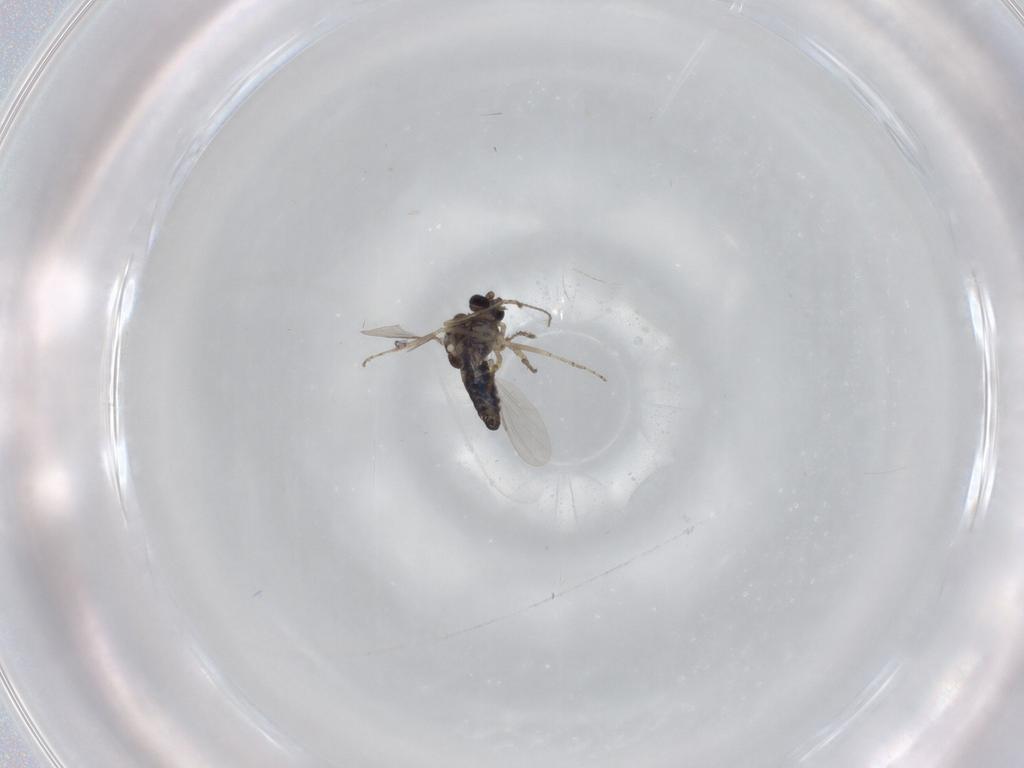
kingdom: Animalia
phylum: Arthropoda
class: Insecta
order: Diptera
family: Ceratopogonidae
